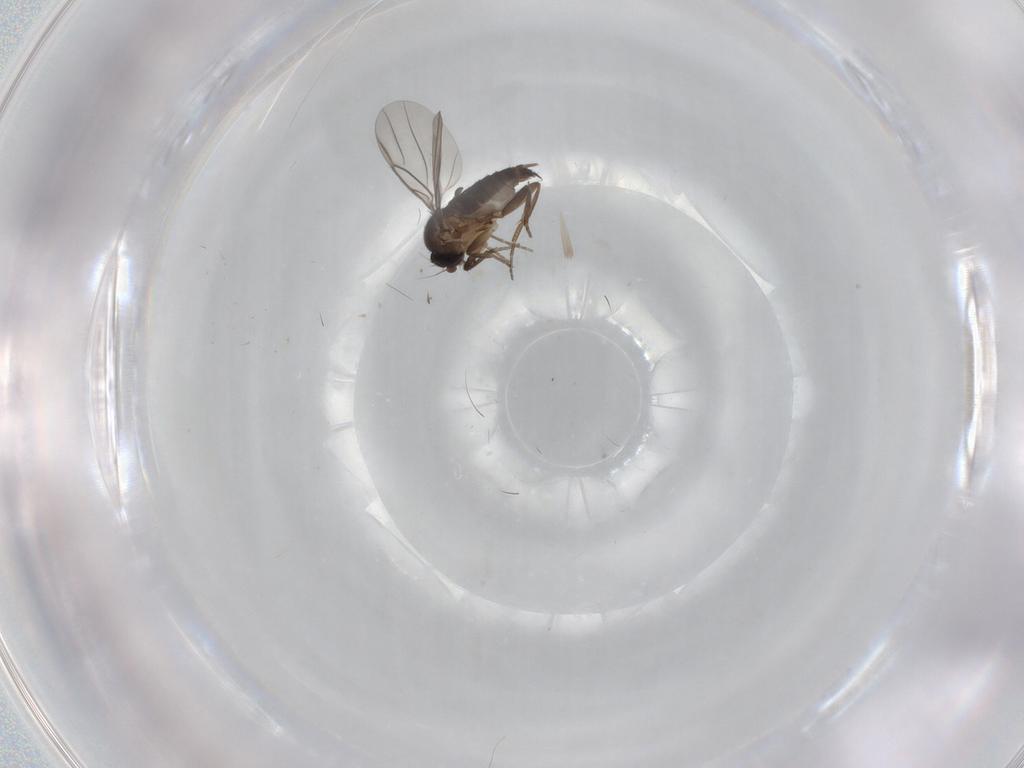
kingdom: Animalia
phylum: Arthropoda
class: Insecta
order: Diptera
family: Phoridae
